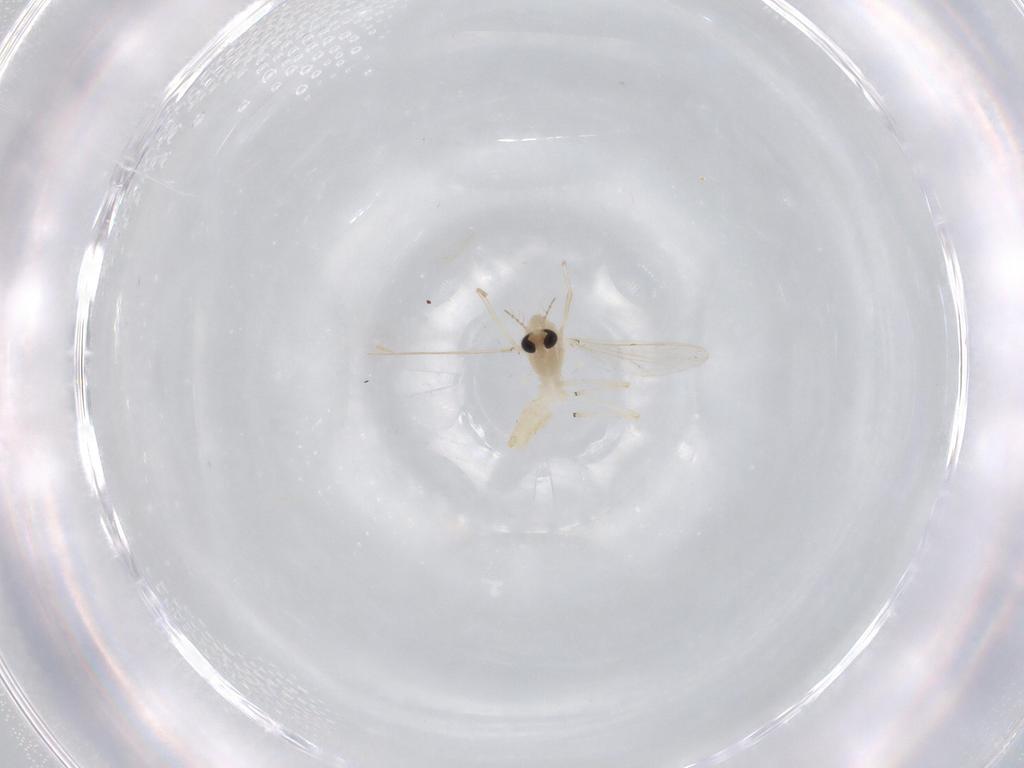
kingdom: Animalia
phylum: Arthropoda
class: Insecta
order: Diptera
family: Chironomidae
